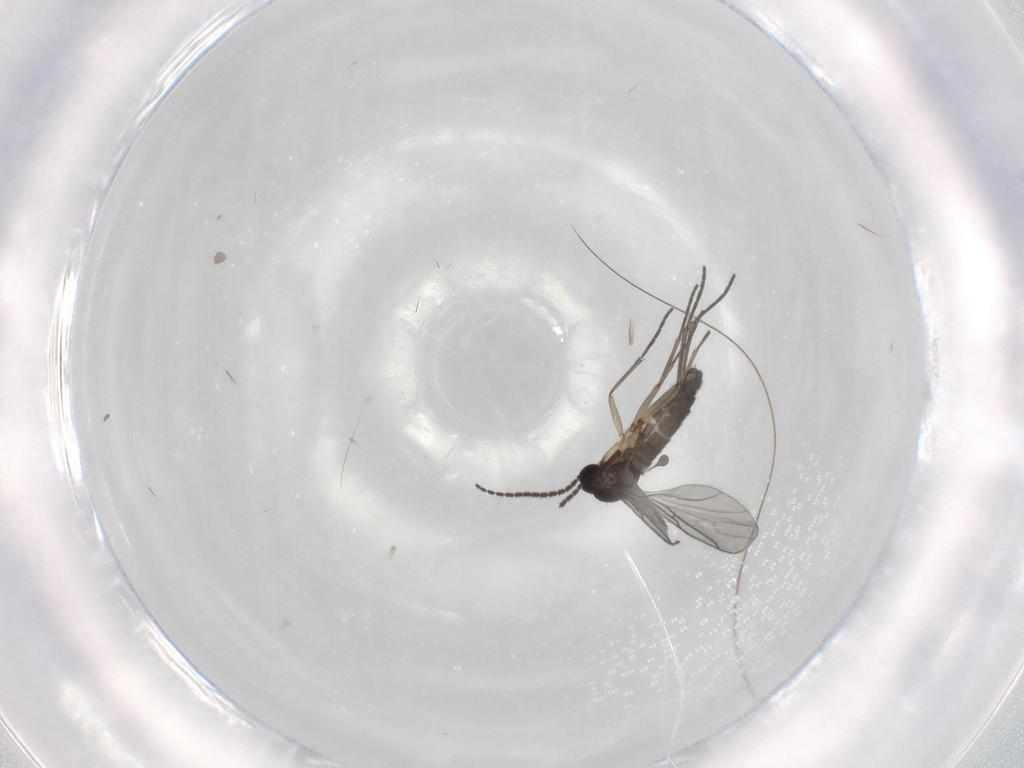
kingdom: Animalia
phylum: Arthropoda
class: Insecta
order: Diptera
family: Sciaridae
